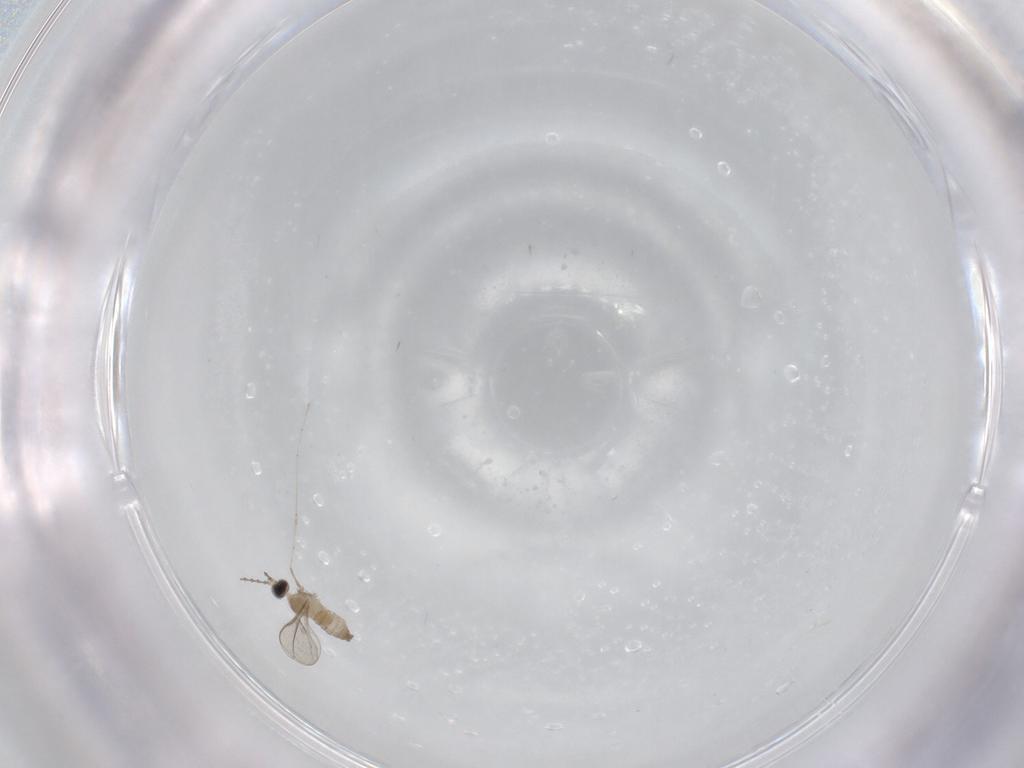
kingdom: Animalia
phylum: Arthropoda
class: Insecta
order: Diptera
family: Cecidomyiidae
